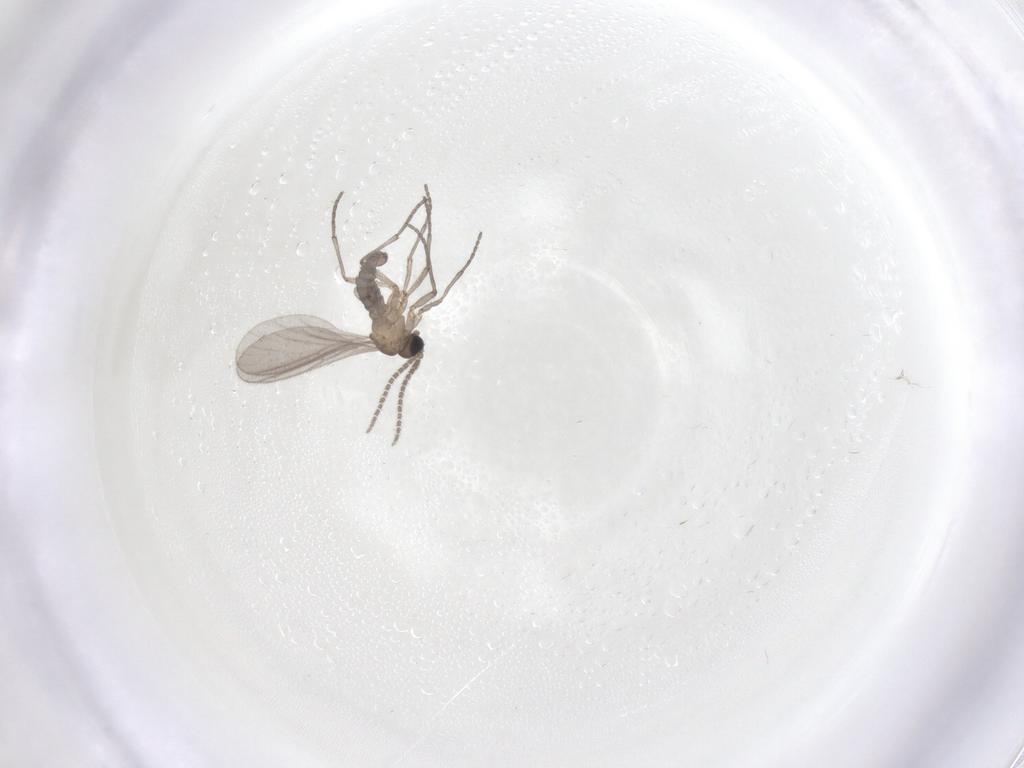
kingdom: Animalia
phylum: Arthropoda
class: Insecta
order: Diptera
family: Sciaridae
